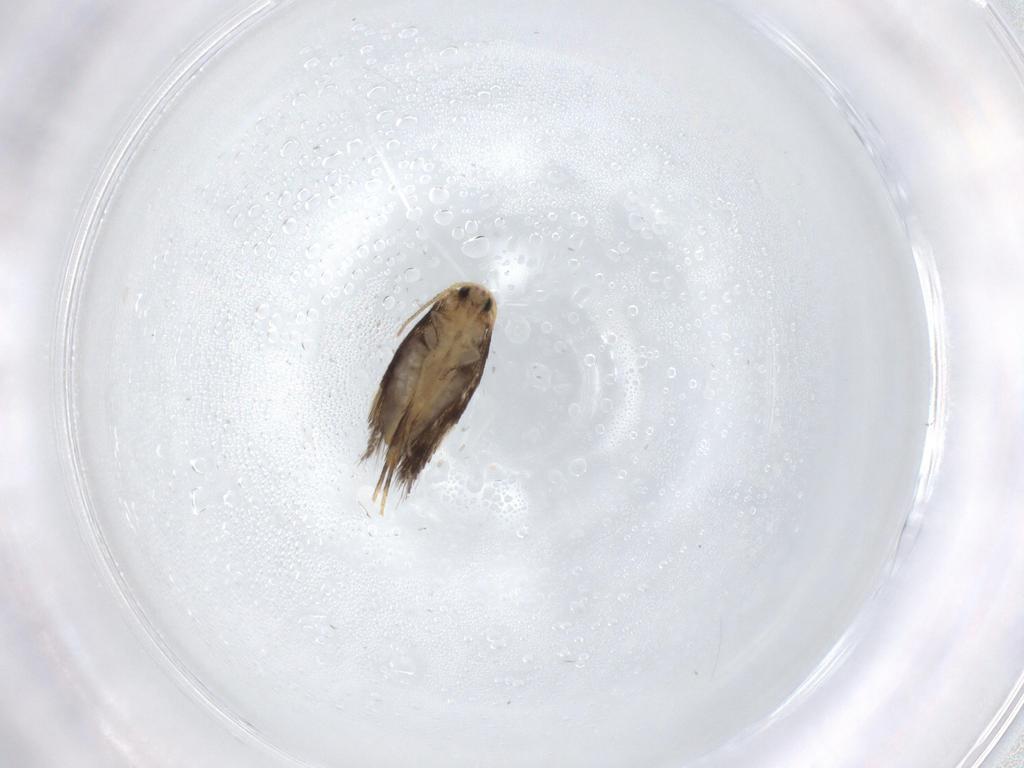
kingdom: Animalia
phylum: Arthropoda
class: Insecta
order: Lepidoptera
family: Nepticulidae
